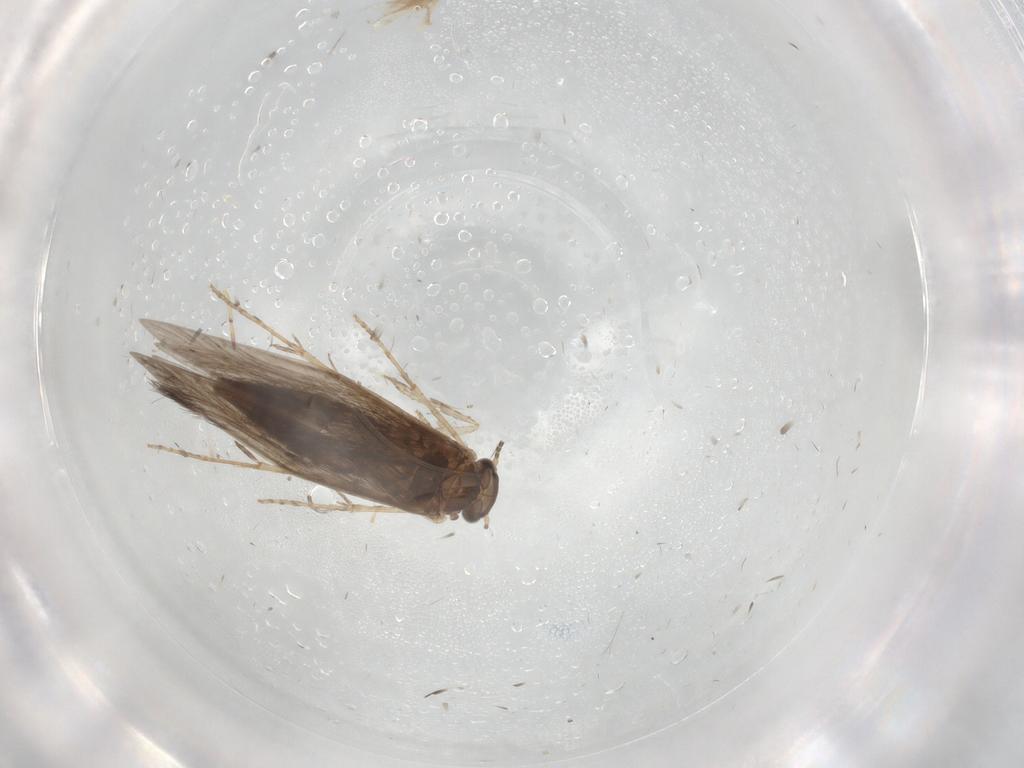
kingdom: Animalia
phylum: Arthropoda
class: Insecta
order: Trichoptera
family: Hydroptilidae
